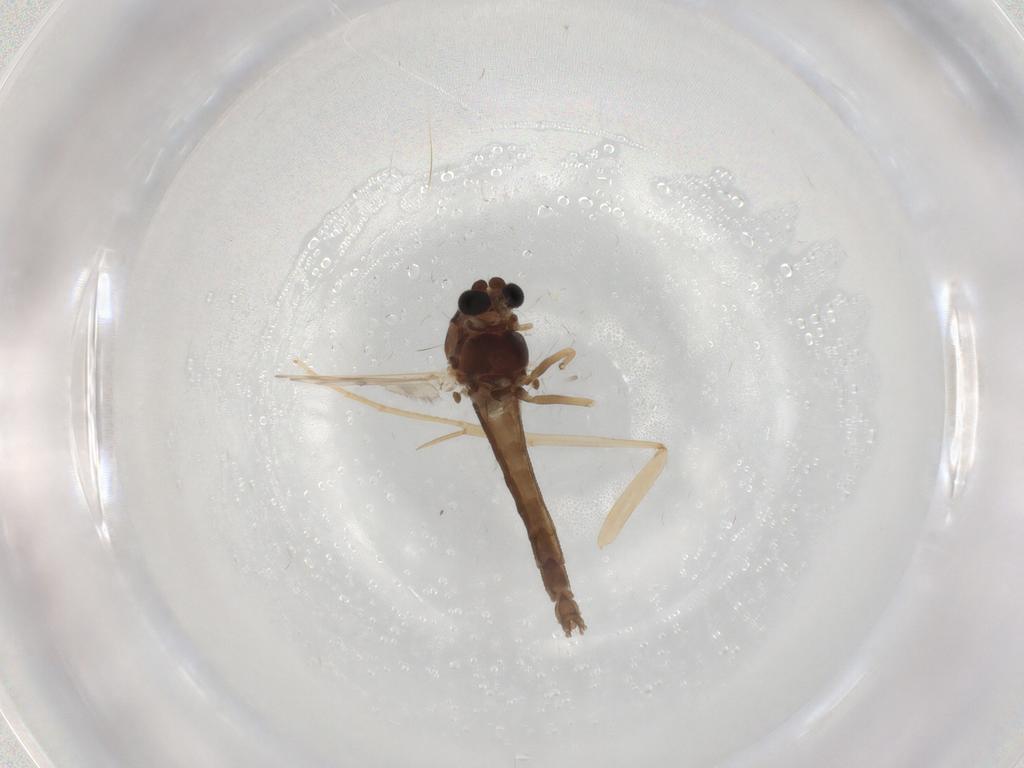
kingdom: Animalia
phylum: Arthropoda
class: Insecta
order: Diptera
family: Chironomidae
